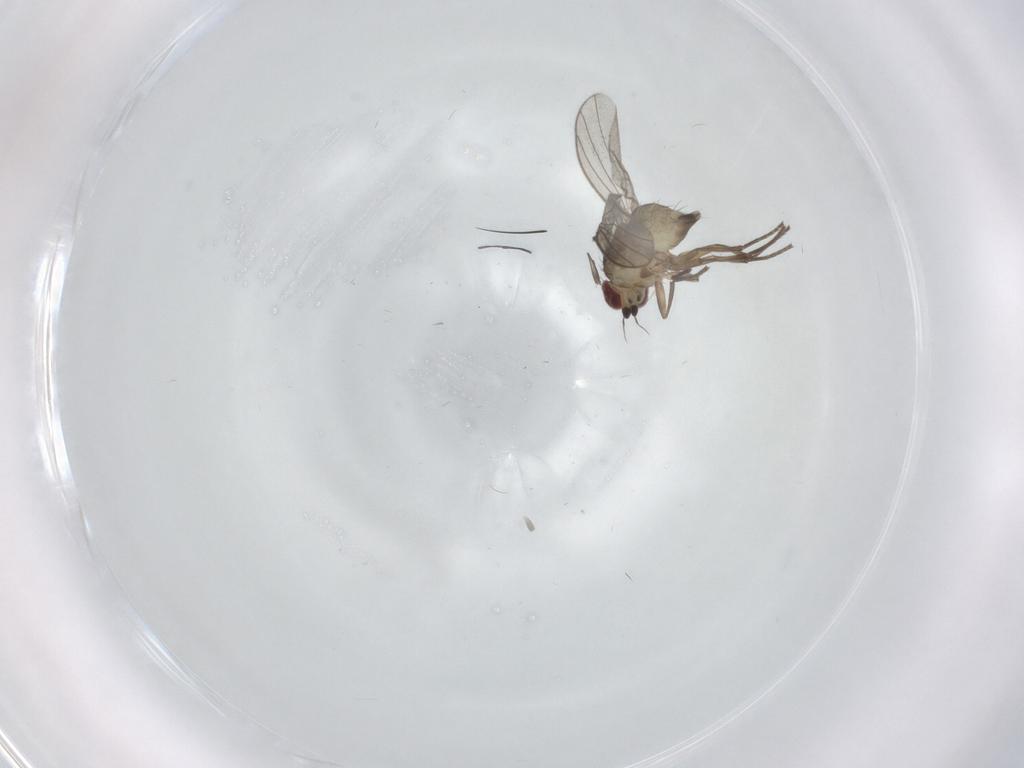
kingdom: Animalia
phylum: Arthropoda
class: Insecta
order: Diptera
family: Agromyzidae
